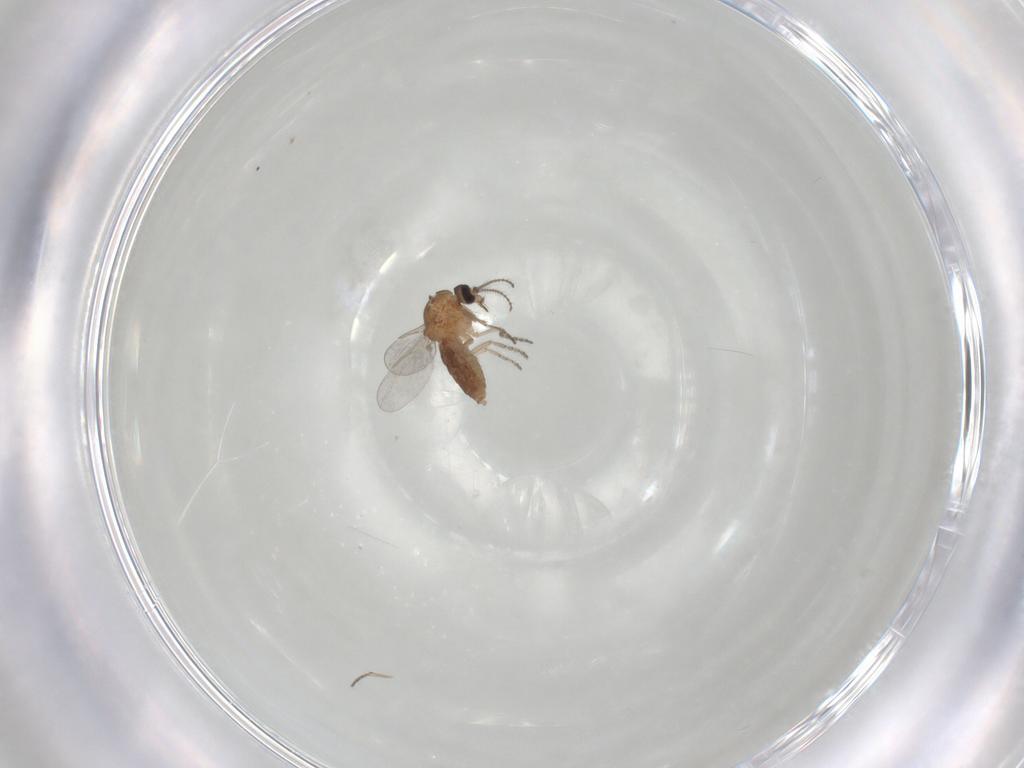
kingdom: Animalia
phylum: Arthropoda
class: Insecta
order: Diptera
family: Ceratopogonidae
